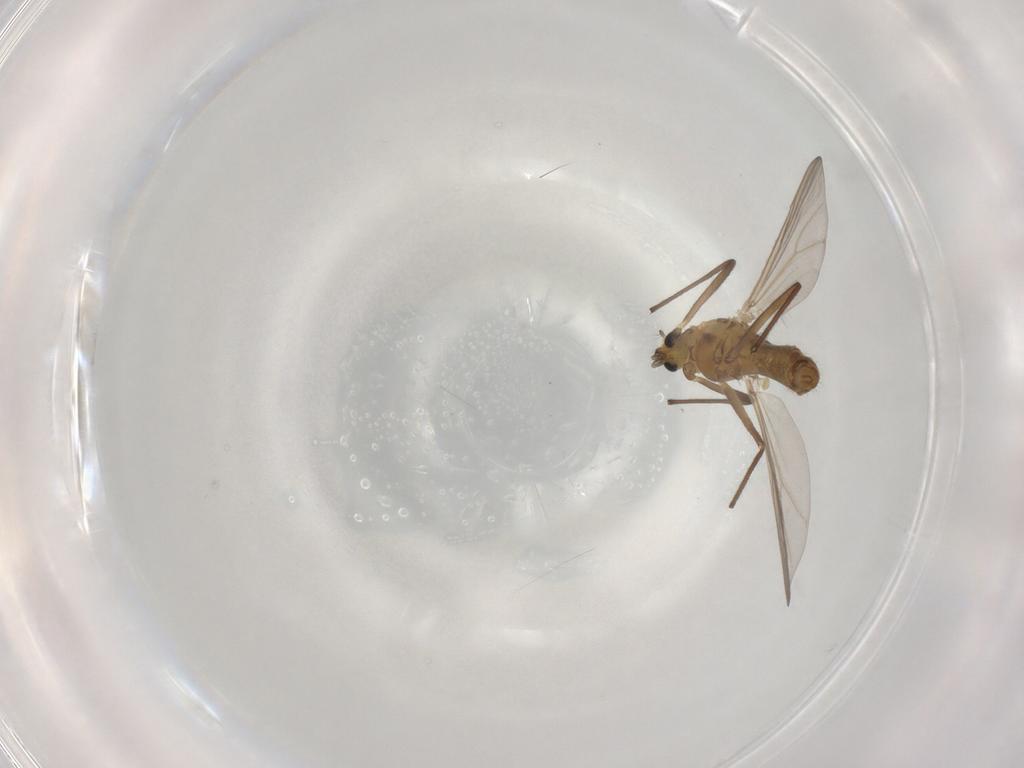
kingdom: Animalia
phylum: Arthropoda
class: Insecta
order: Diptera
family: Chironomidae
